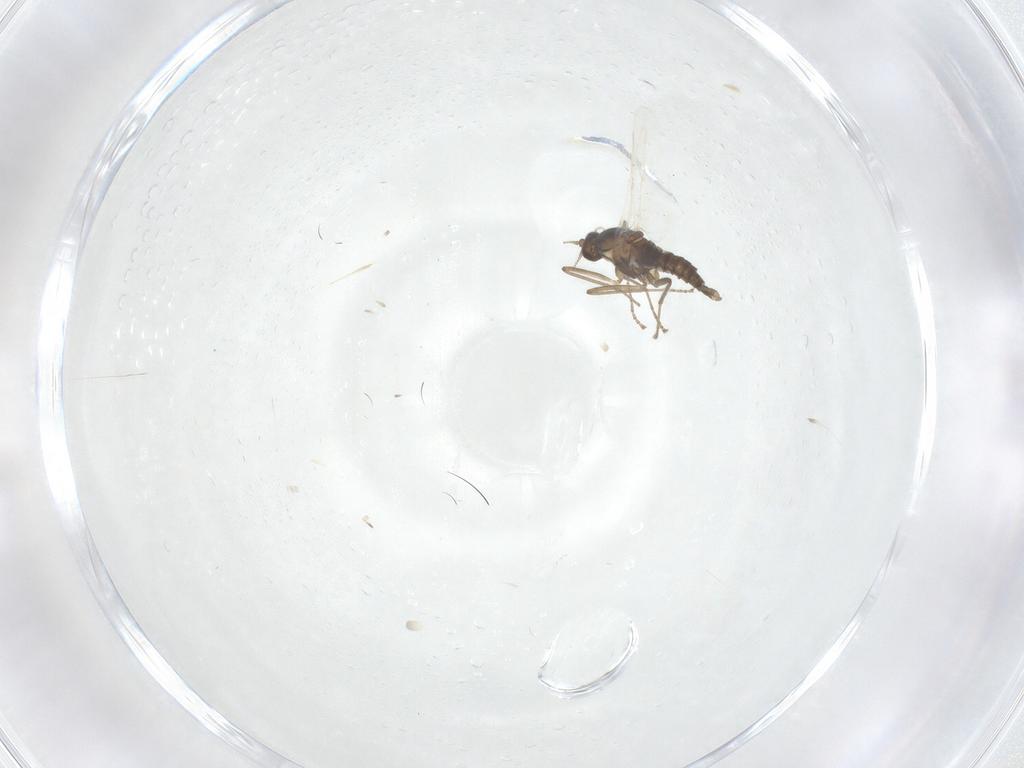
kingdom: Animalia
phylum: Arthropoda
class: Insecta
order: Diptera
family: Cecidomyiidae
